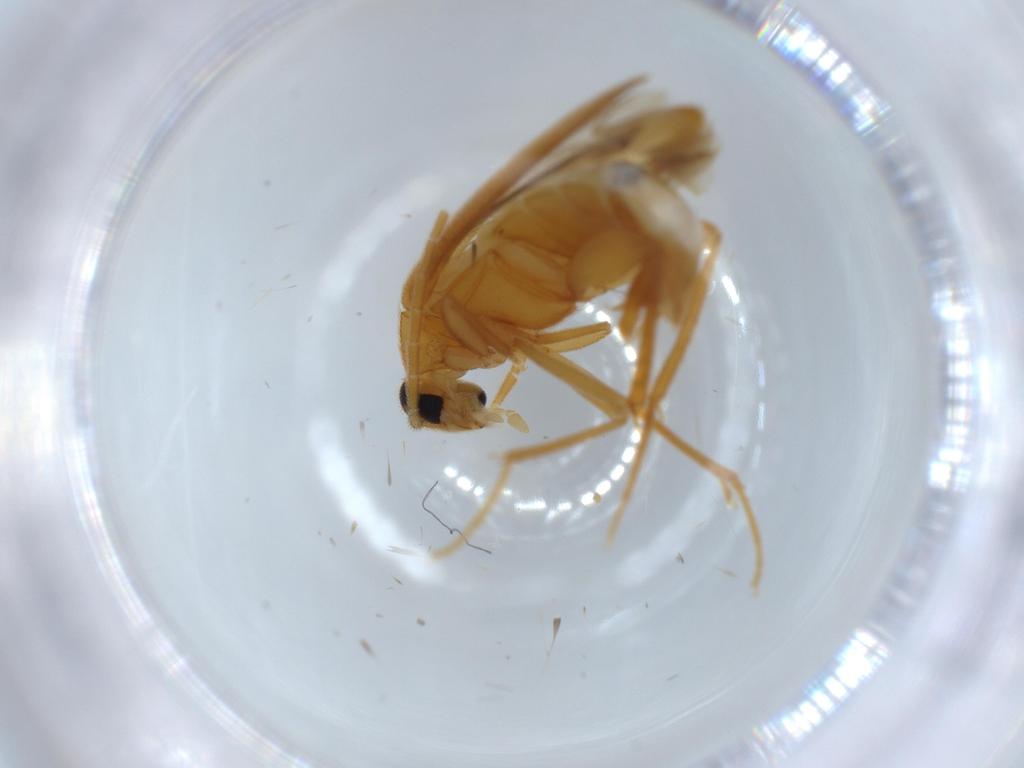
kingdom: Animalia
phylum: Arthropoda
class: Insecta
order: Coleoptera
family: Scraptiidae
